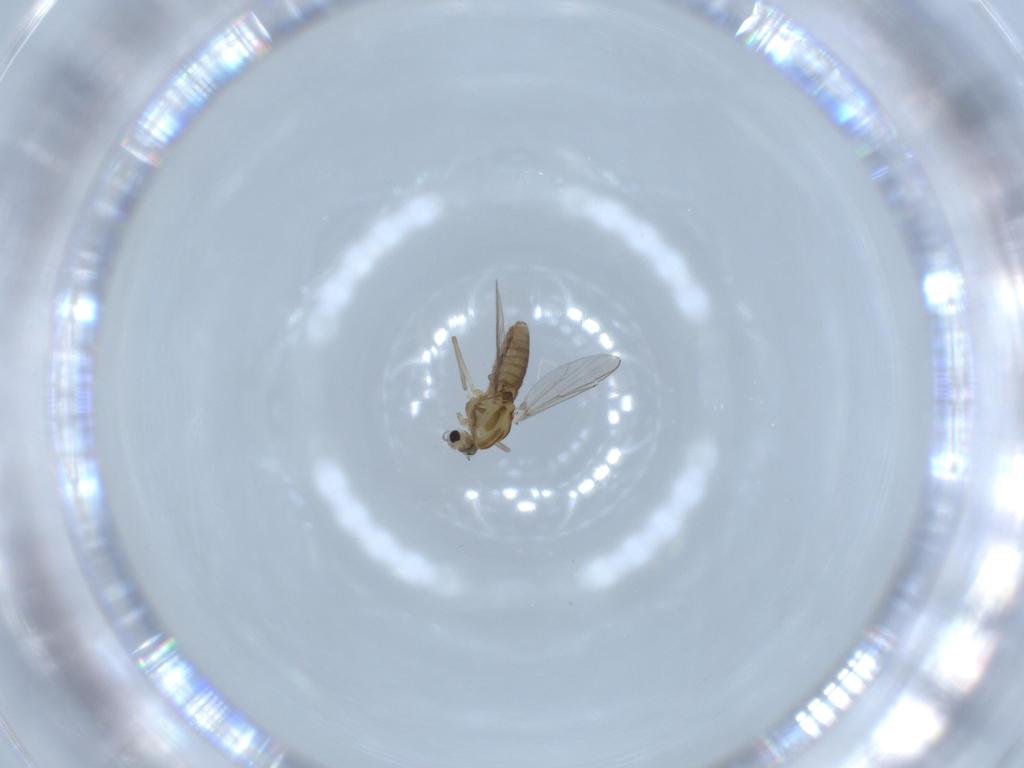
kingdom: Animalia
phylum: Arthropoda
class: Insecta
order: Diptera
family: Chironomidae
